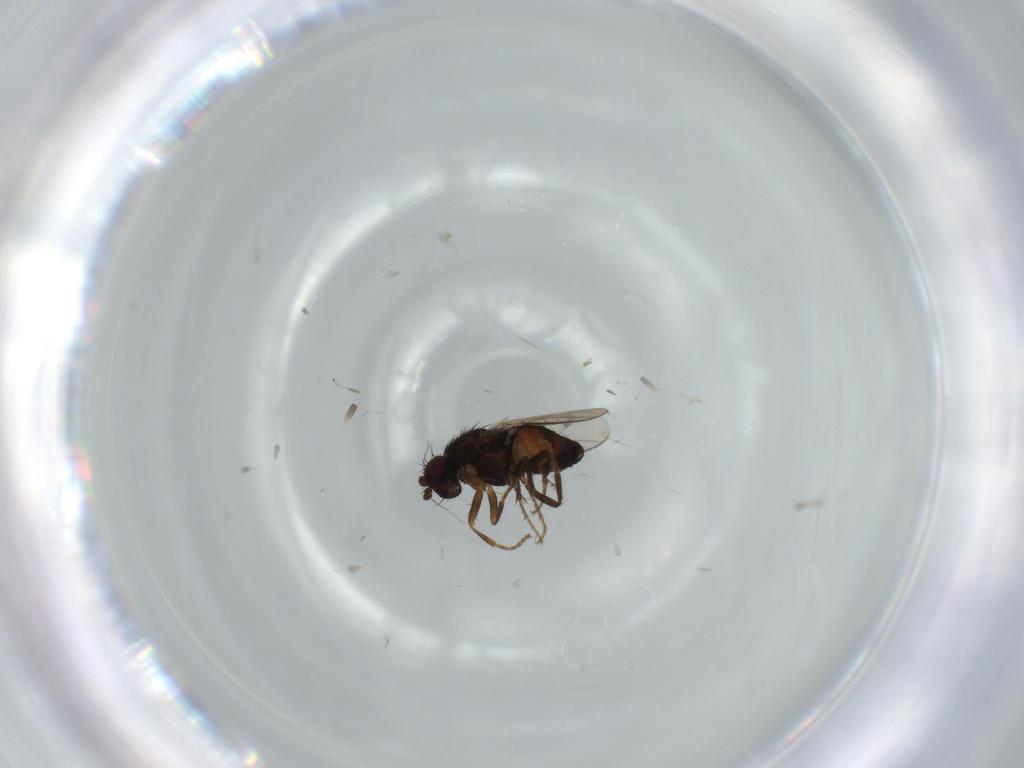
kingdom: Animalia
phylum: Arthropoda
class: Insecta
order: Diptera
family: Sphaeroceridae
